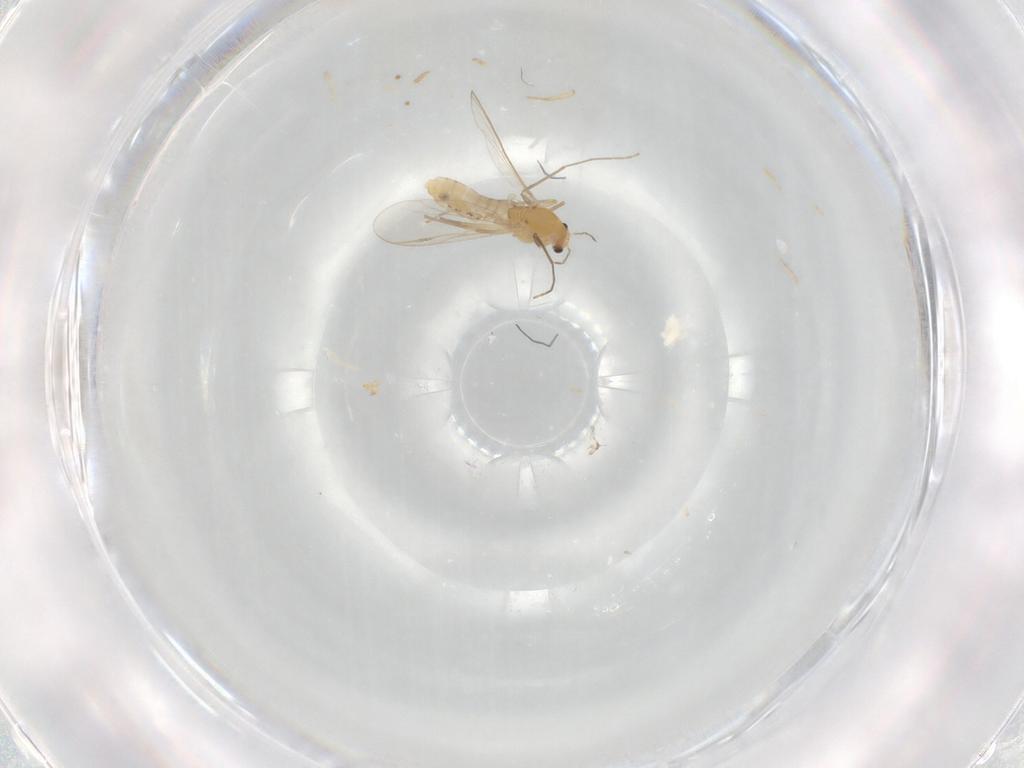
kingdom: Animalia
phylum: Arthropoda
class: Insecta
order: Diptera
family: Chironomidae
